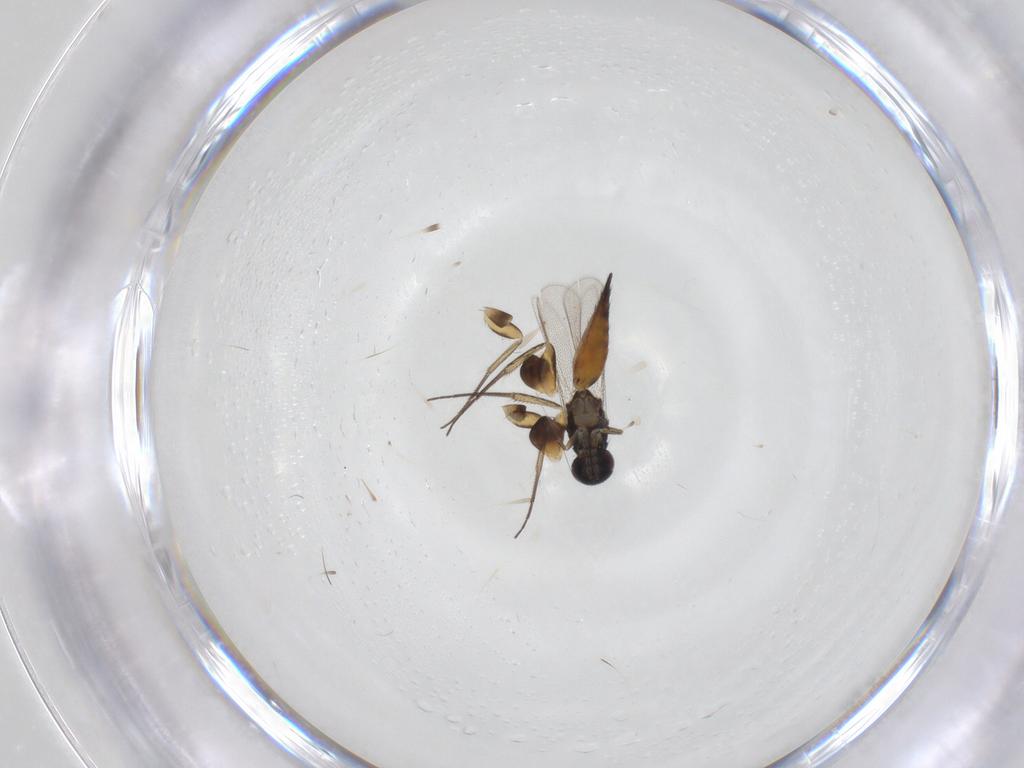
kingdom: Animalia
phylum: Arthropoda
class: Insecta
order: Hymenoptera
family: Eulophidae
